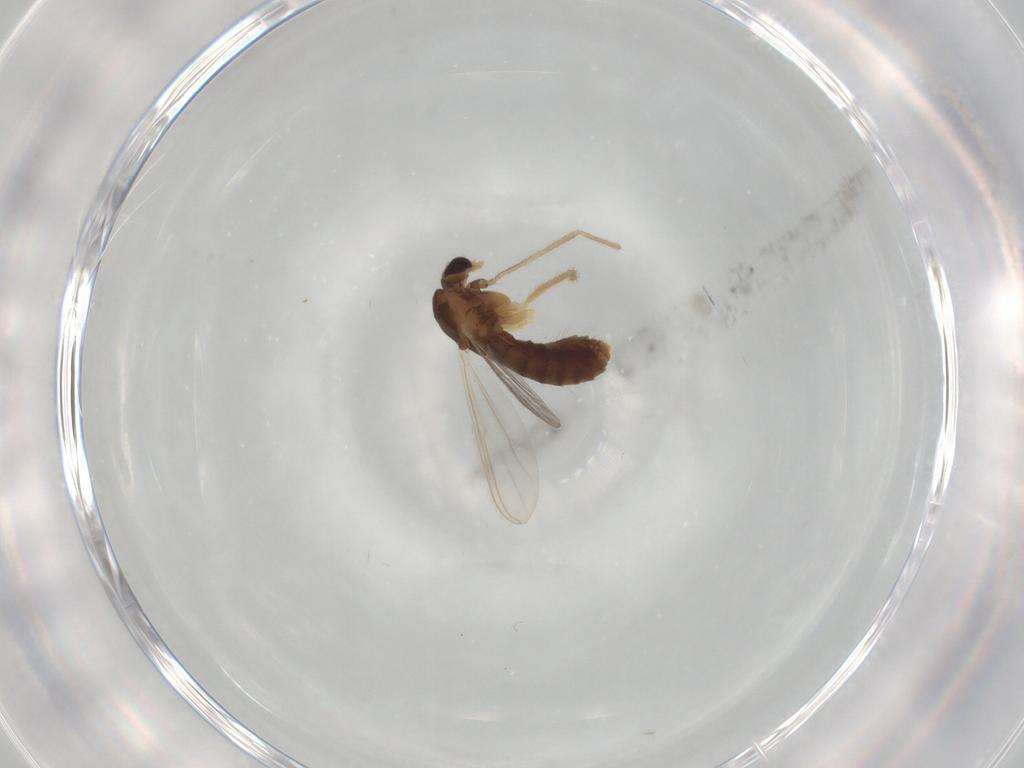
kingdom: Animalia
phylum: Arthropoda
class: Insecta
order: Diptera
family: Chironomidae
